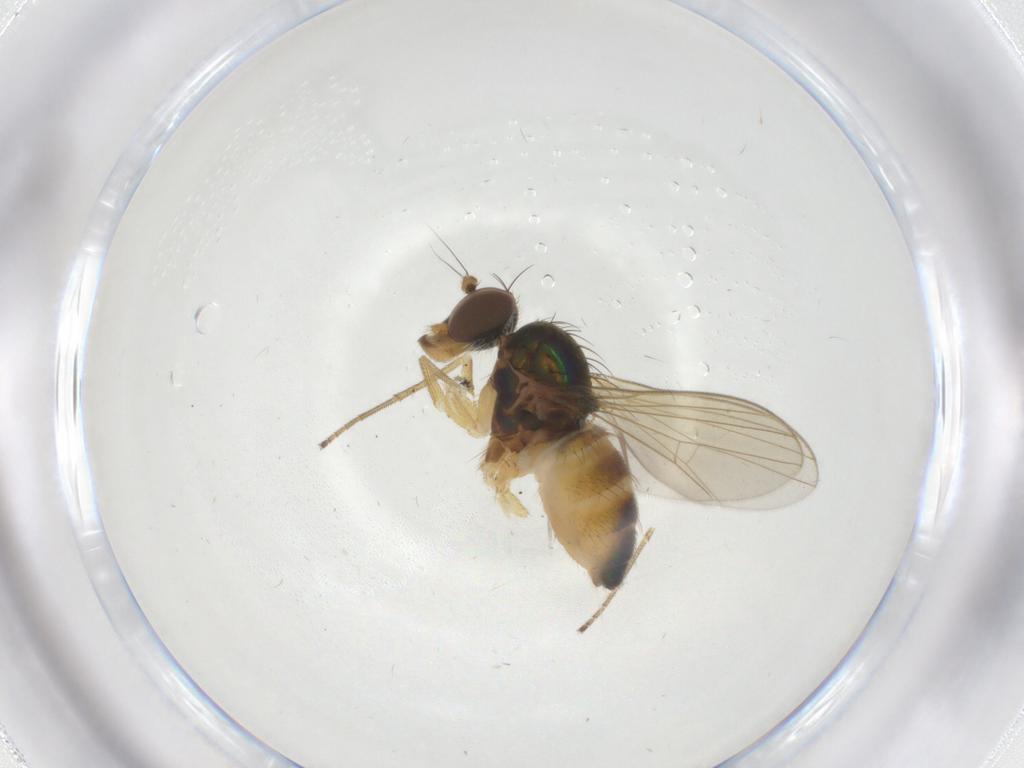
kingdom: Animalia
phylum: Arthropoda
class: Insecta
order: Diptera
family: Dolichopodidae
